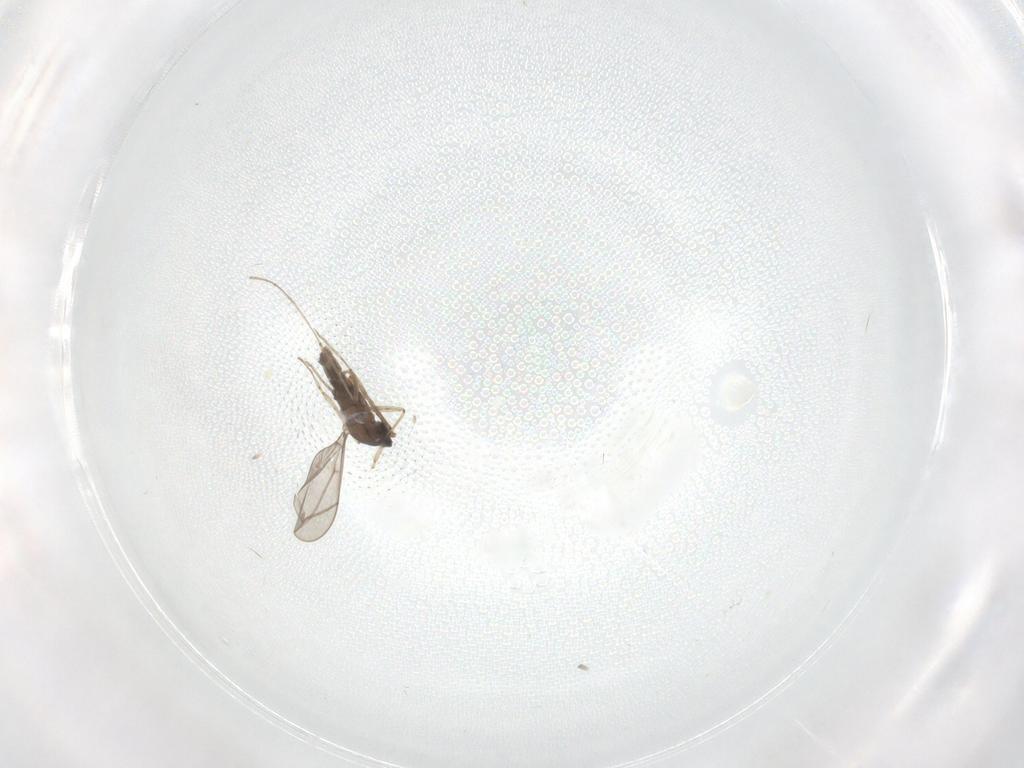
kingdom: Animalia
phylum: Arthropoda
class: Insecta
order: Diptera
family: Cecidomyiidae
